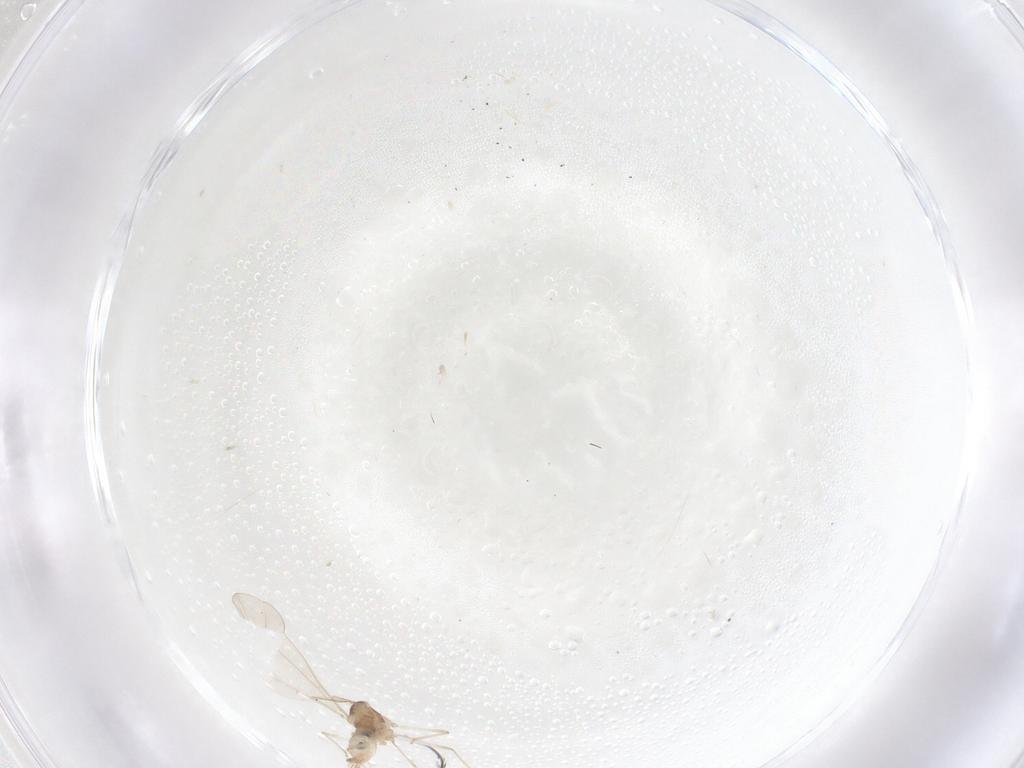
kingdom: Animalia
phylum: Arthropoda
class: Insecta
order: Diptera
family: Cecidomyiidae
